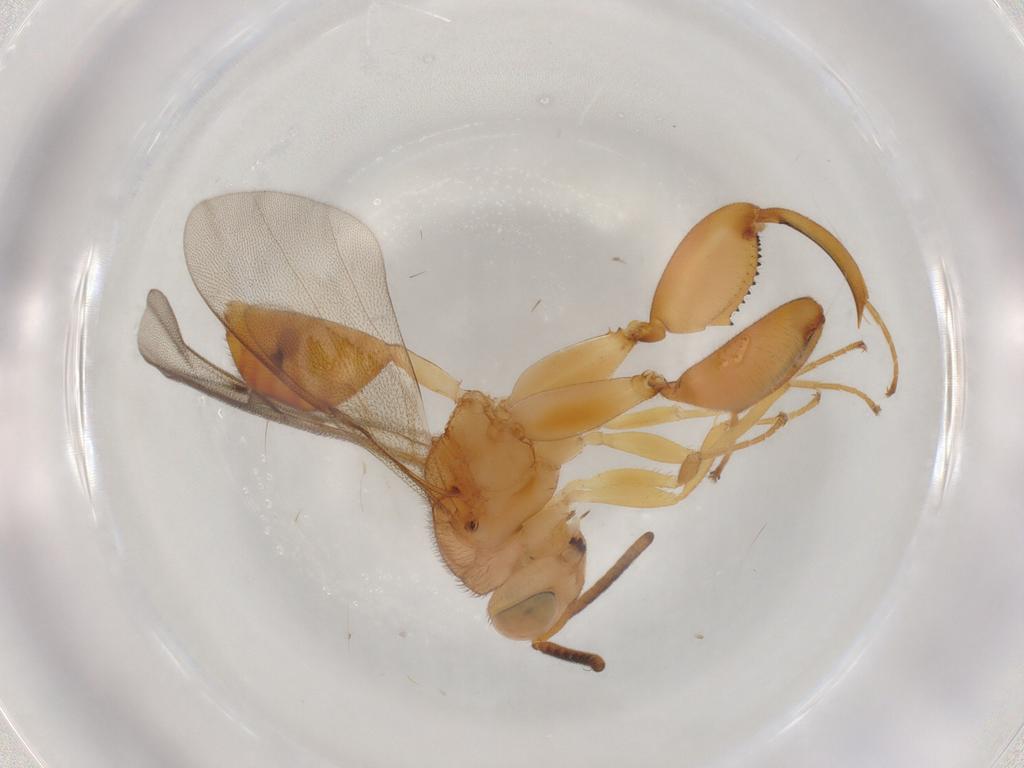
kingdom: Animalia
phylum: Arthropoda
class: Insecta
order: Hymenoptera
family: Chalcididae
